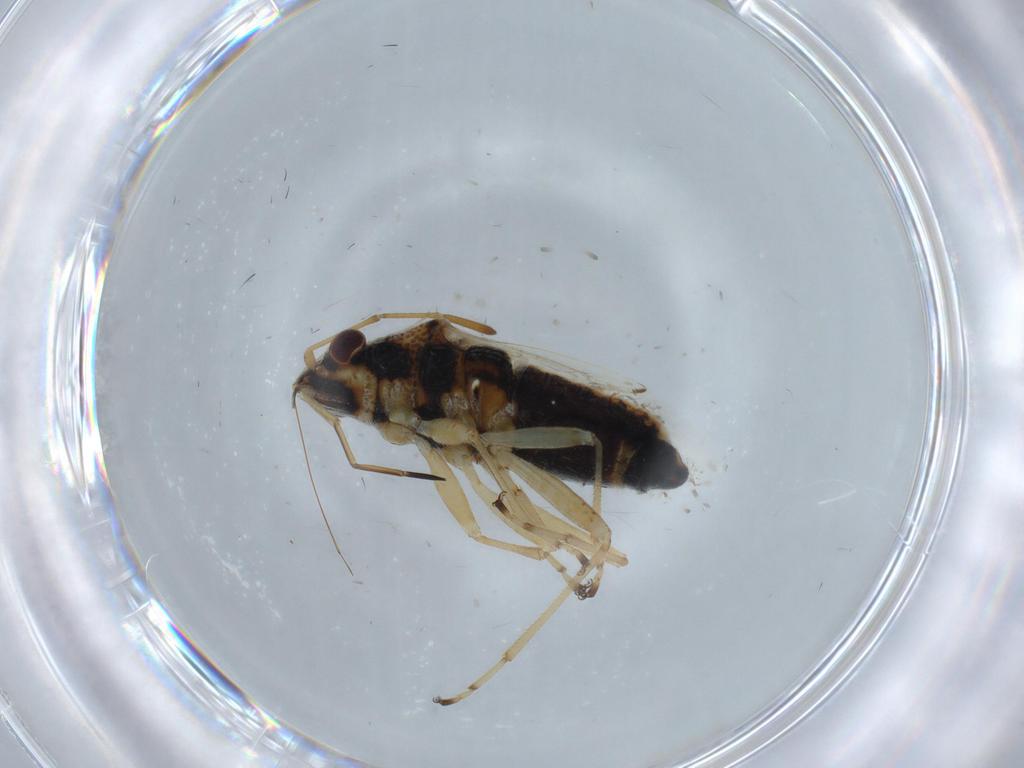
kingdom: Animalia
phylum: Arthropoda
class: Insecta
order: Hemiptera
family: Lygaeidae
